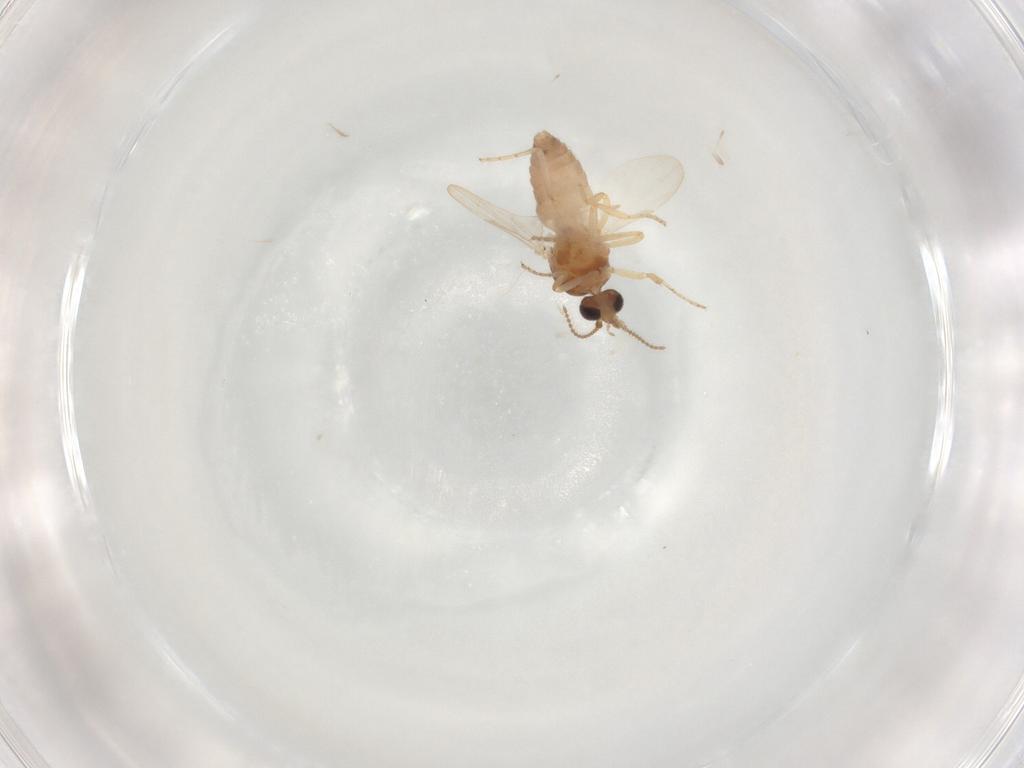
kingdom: Animalia
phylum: Arthropoda
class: Insecta
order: Diptera
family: Anthomyiidae
